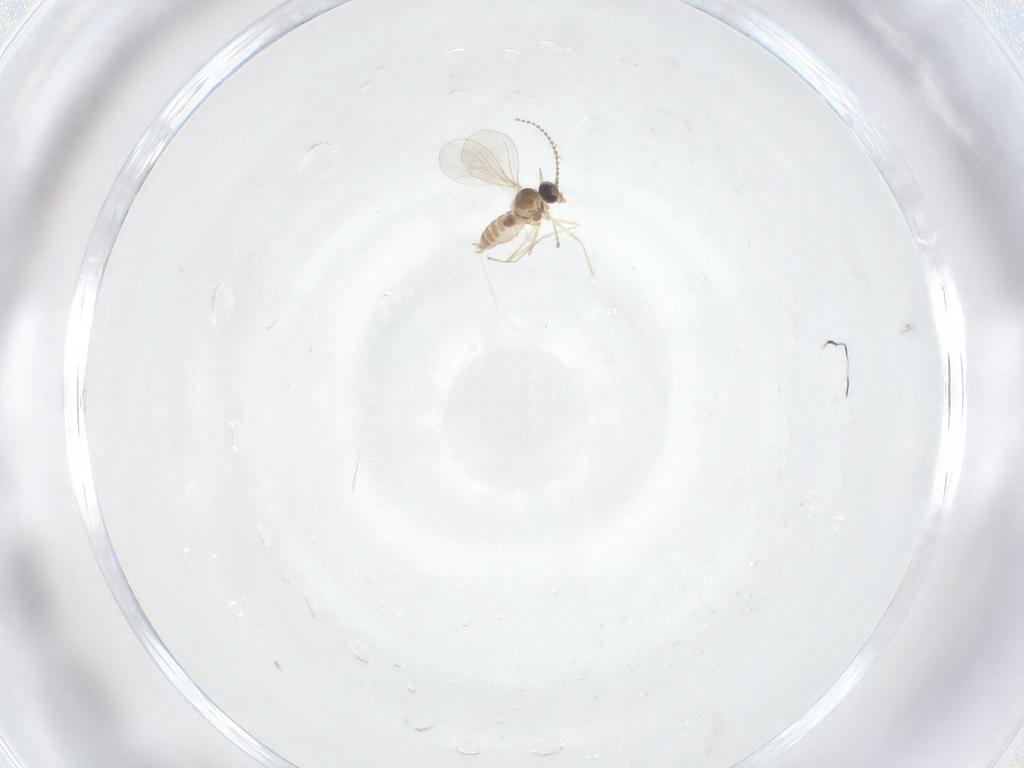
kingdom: Animalia
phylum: Arthropoda
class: Insecta
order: Diptera
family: Cecidomyiidae
